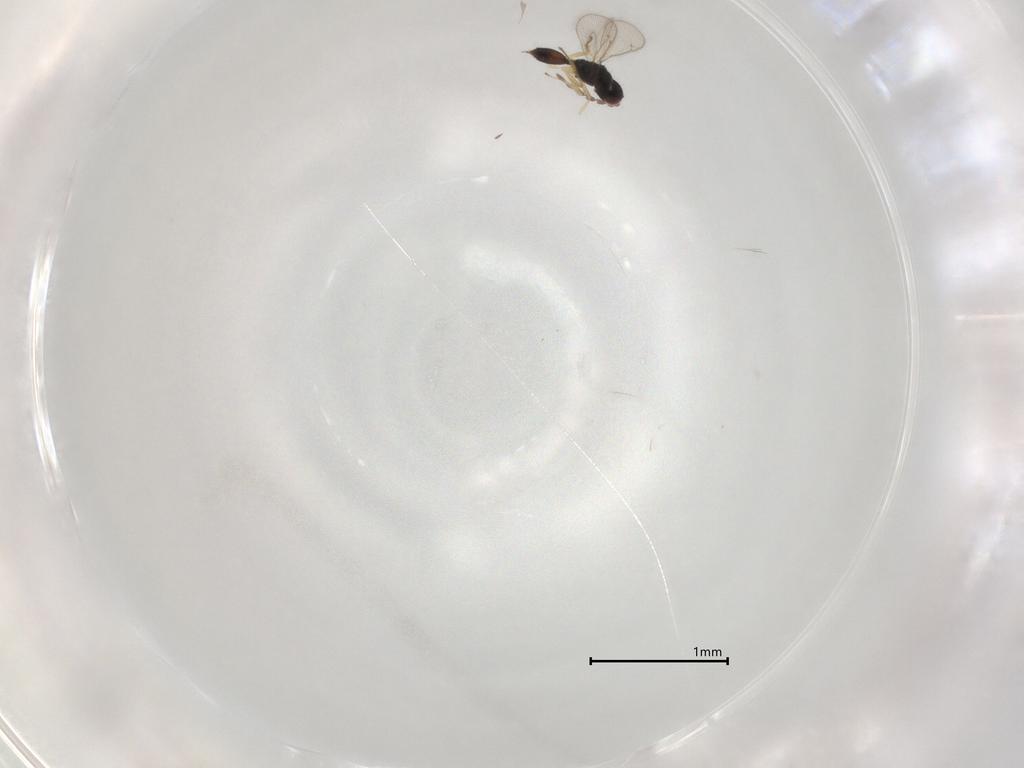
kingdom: Animalia
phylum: Arthropoda
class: Insecta
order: Hymenoptera
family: Eulophidae
